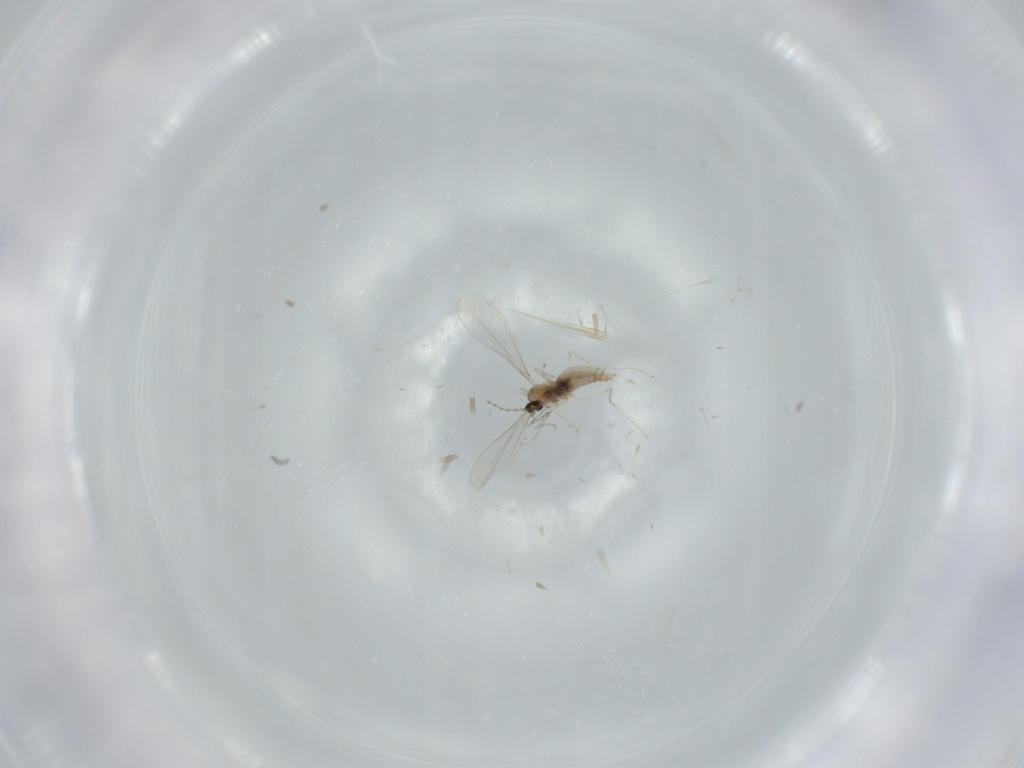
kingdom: Animalia
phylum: Arthropoda
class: Insecta
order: Diptera
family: Cecidomyiidae
